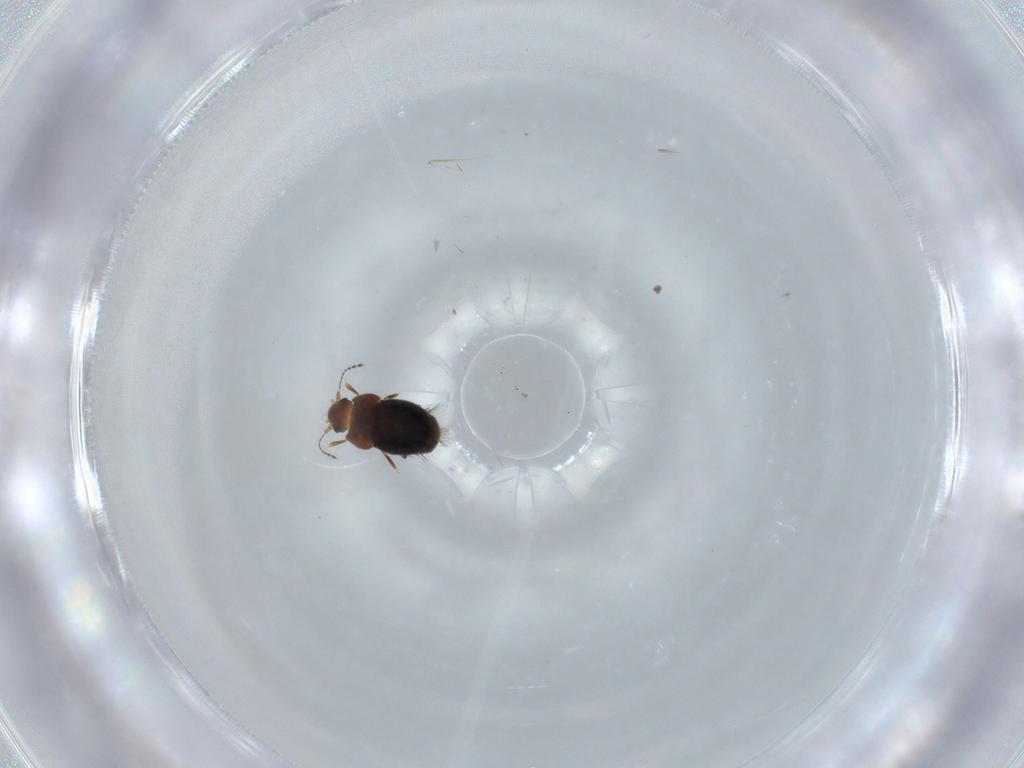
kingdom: Animalia
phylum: Arthropoda
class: Insecta
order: Coleoptera
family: Ptiliidae
